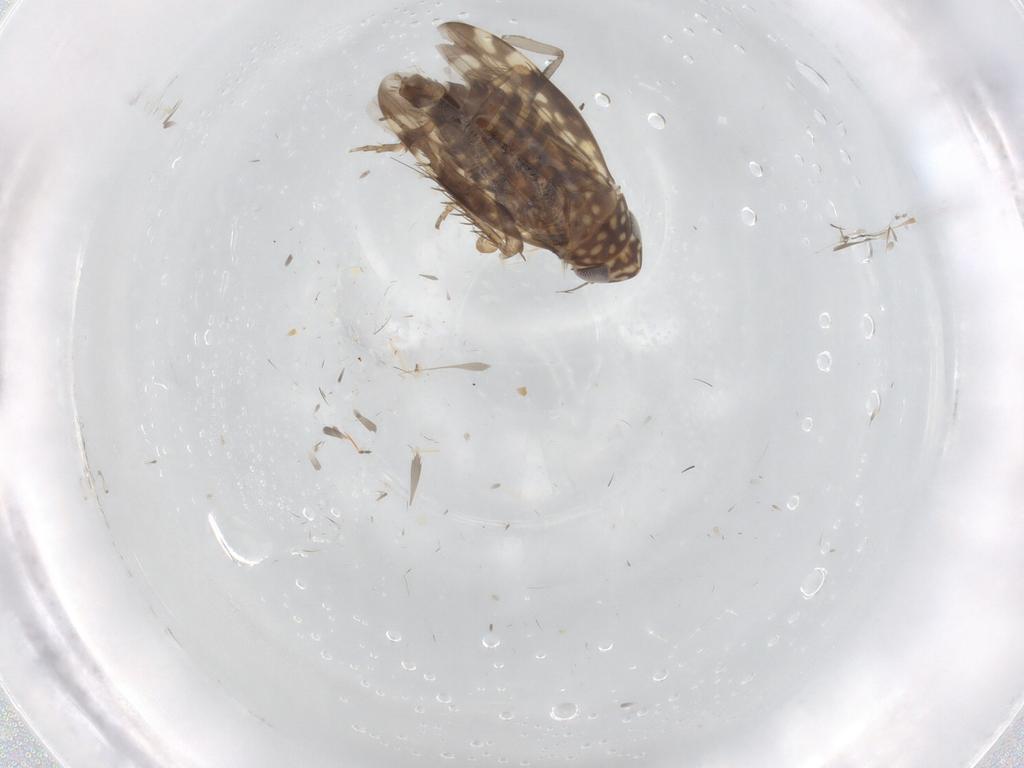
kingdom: Animalia
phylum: Arthropoda
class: Insecta
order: Hemiptera
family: Cicadellidae
